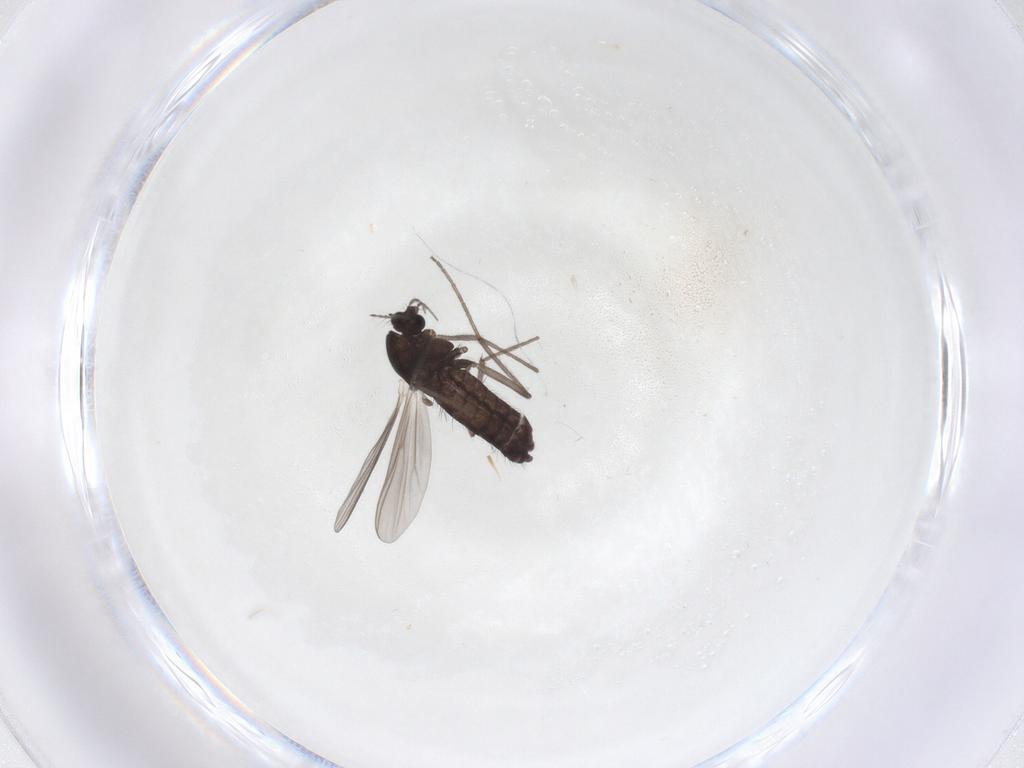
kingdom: Animalia
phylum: Arthropoda
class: Insecta
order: Diptera
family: Chironomidae
